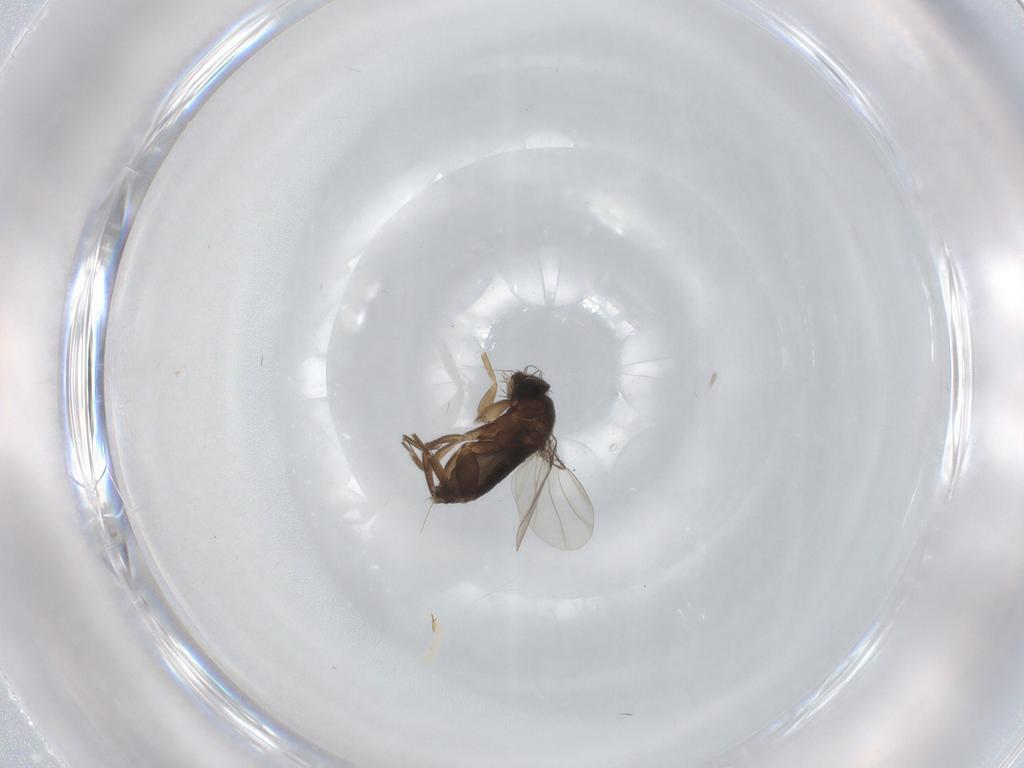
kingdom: Animalia
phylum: Arthropoda
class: Insecta
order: Diptera
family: Phoridae
